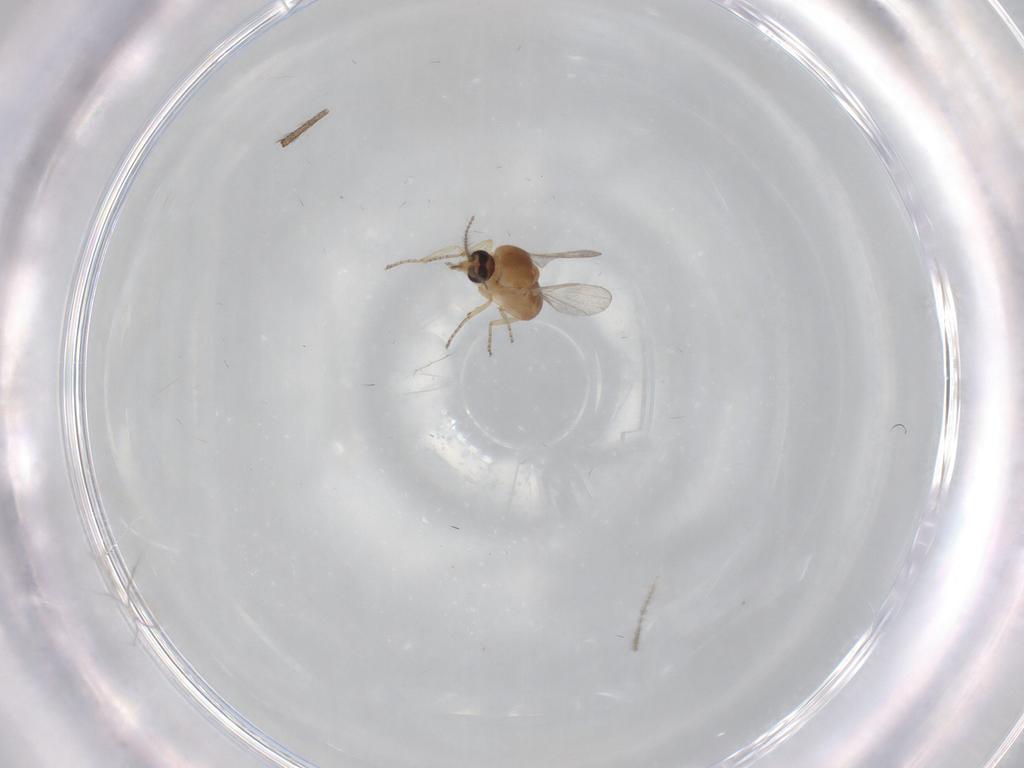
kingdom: Animalia
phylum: Arthropoda
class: Insecta
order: Diptera
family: Ceratopogonidae
